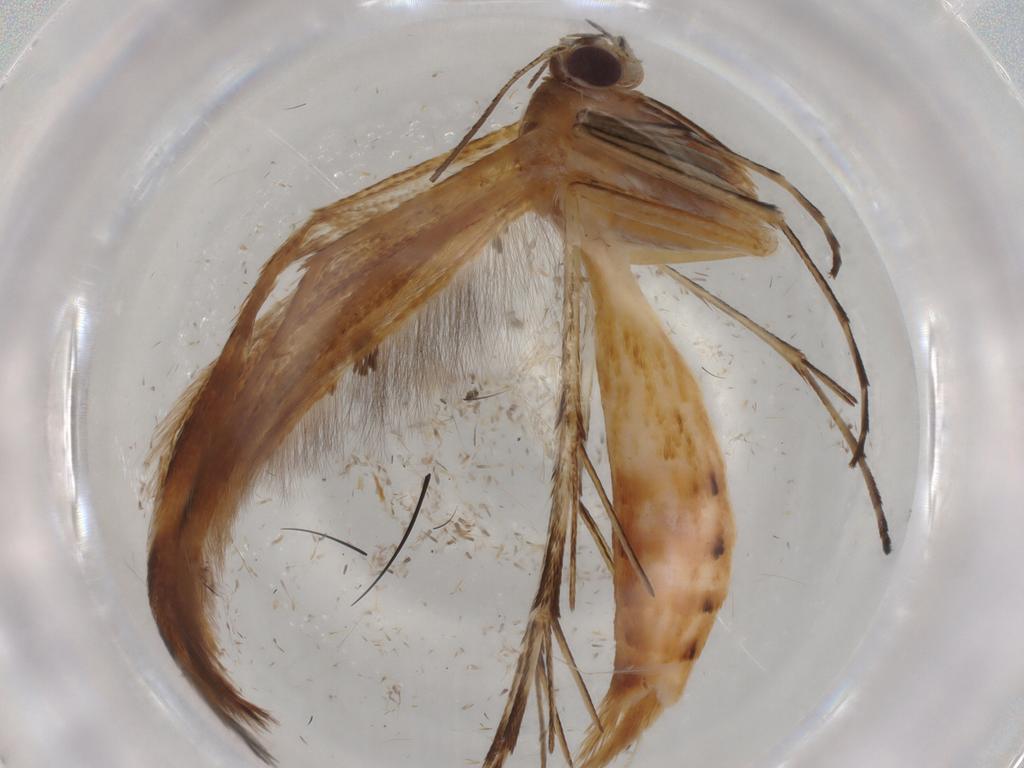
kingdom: Animalia
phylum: Arthropoda
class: Insecta
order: Lepidoptera
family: Pterophoridae
